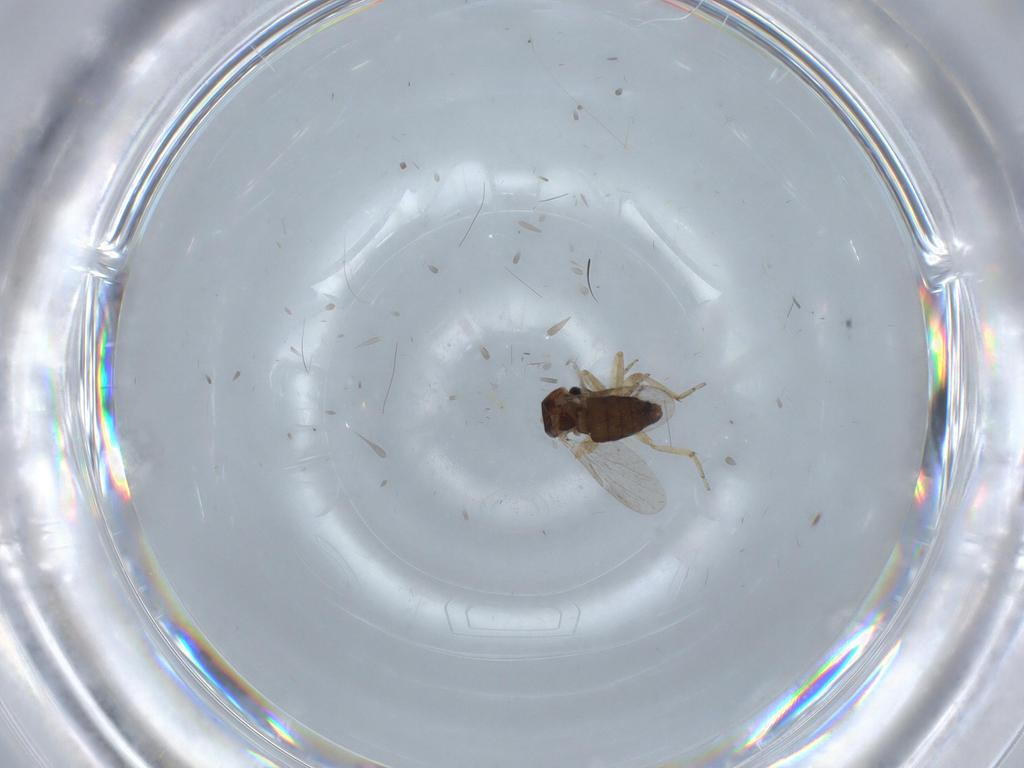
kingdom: Animalia
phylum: Arthropoda
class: Insecta
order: Diptera
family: Ceratopogonidae
